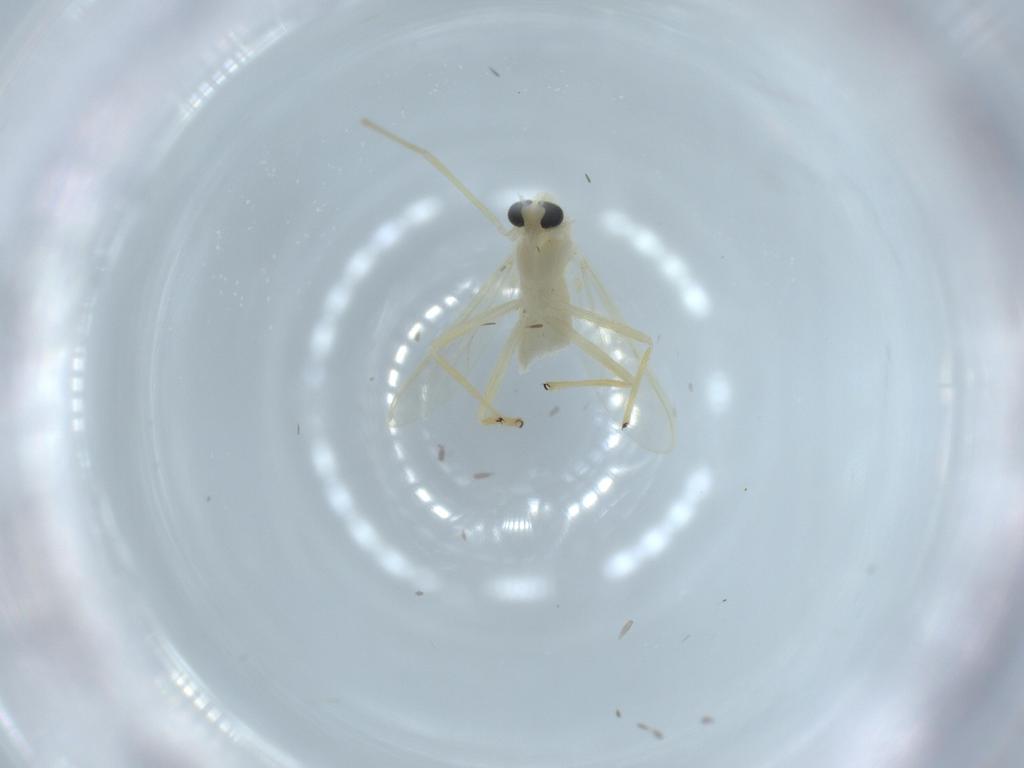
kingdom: Animalia
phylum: Arthropoda
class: Insecta
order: Diptera
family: Chironomidae
